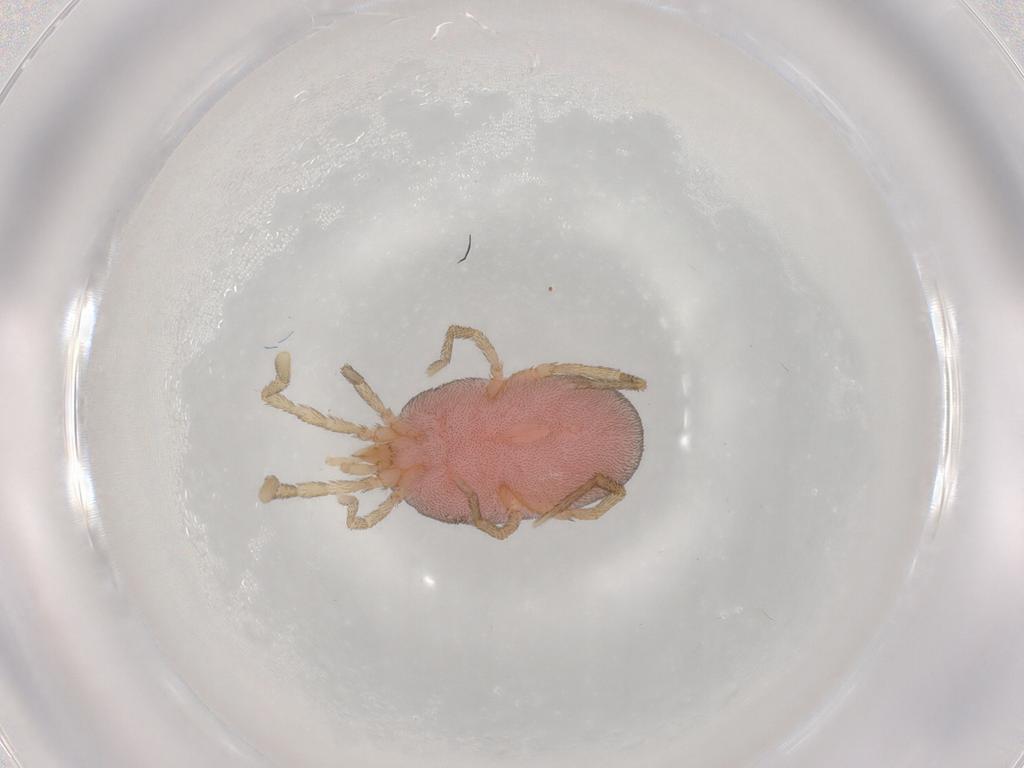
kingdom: Animalia
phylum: Arthropoda
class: Arachnida
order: Trombidiformes
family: Erythraeidae
